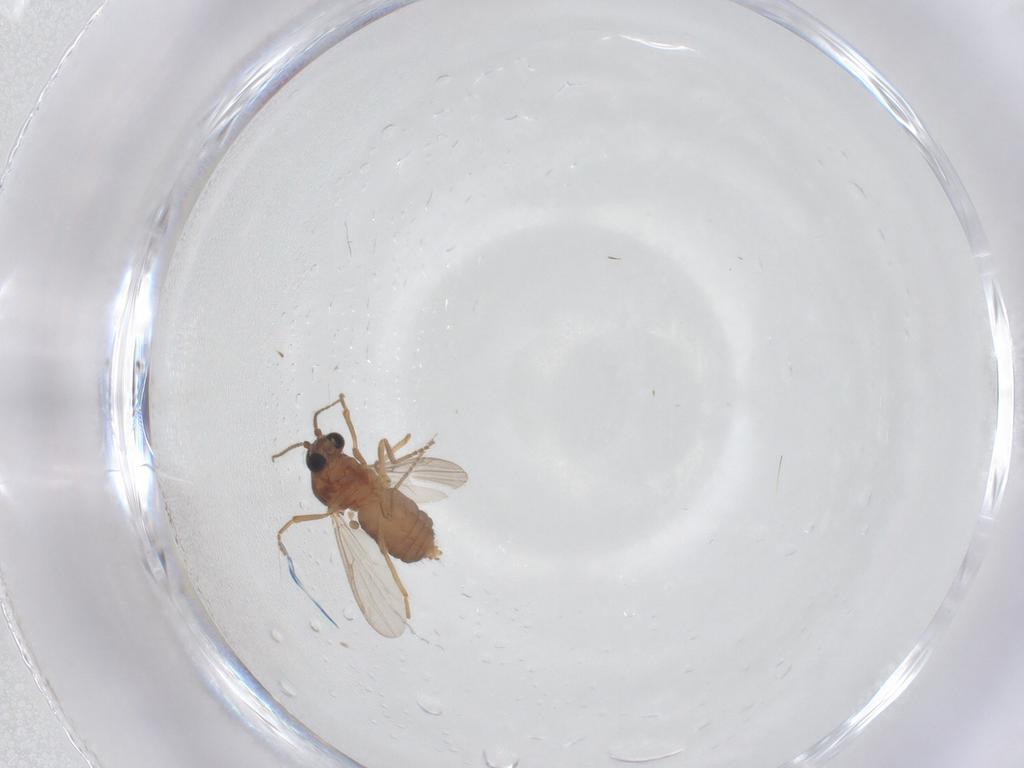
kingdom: Animalia
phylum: Arthropoda
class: Insecta
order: Diptera
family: Ceratopogonidae
